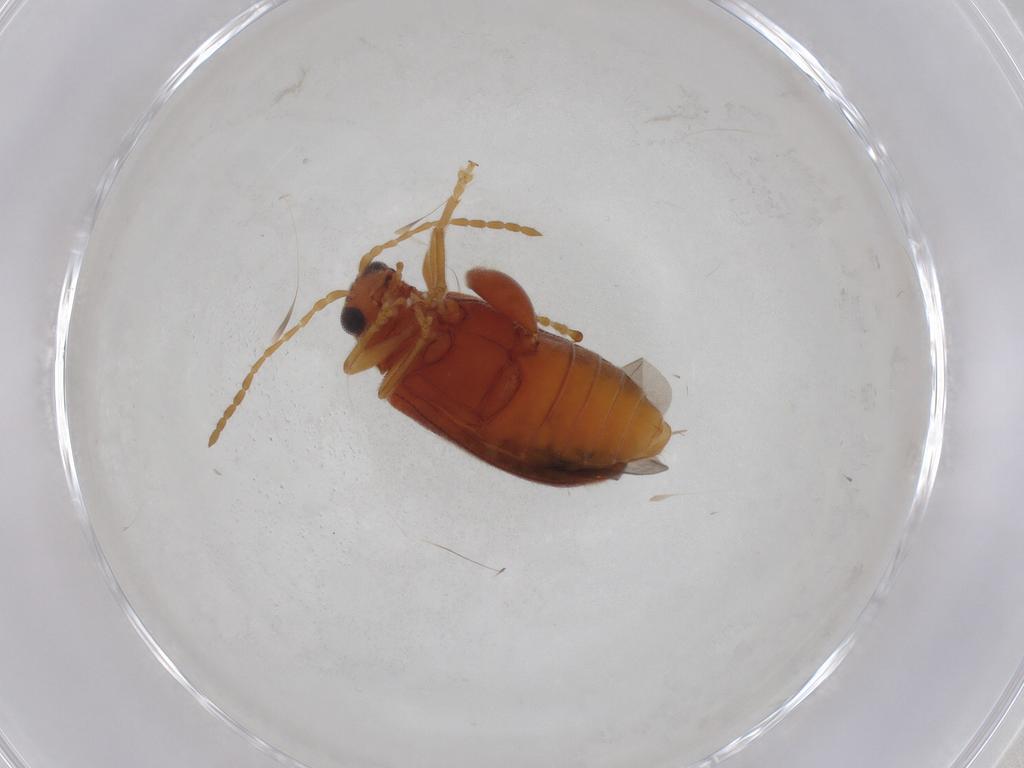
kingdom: Animalia
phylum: Arthropoda
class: Insecta
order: Coleoptera
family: Chrysomelidae
